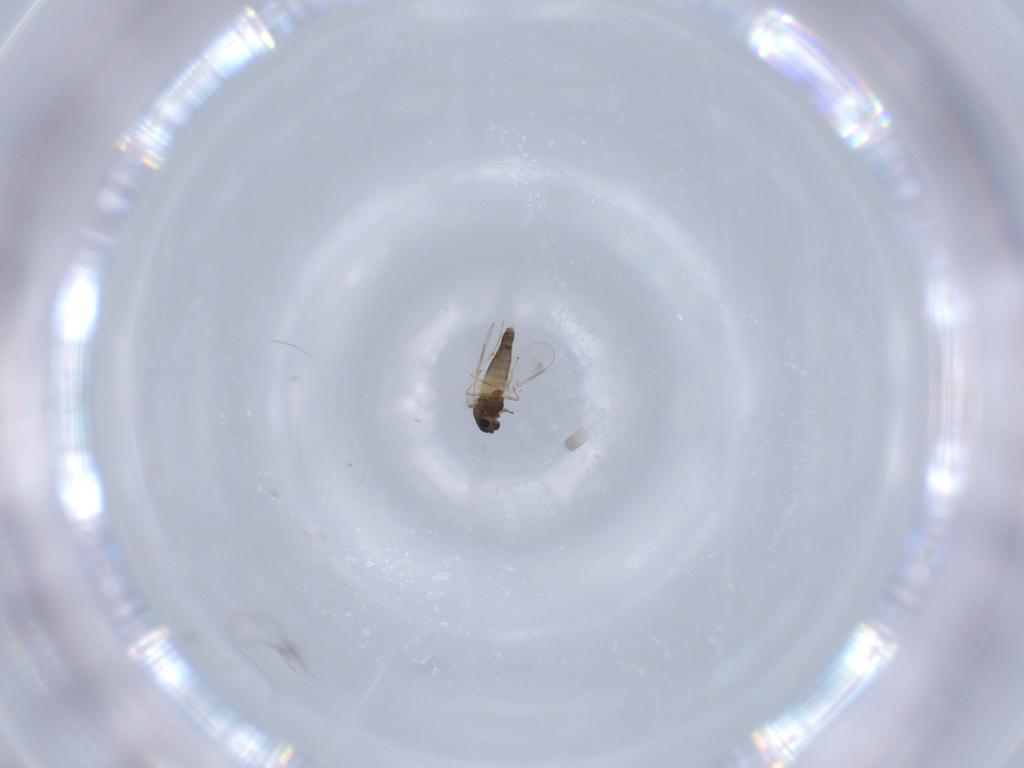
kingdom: Animalia
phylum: Arthropoda
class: Insecta
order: Diptera
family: Chironomidae
